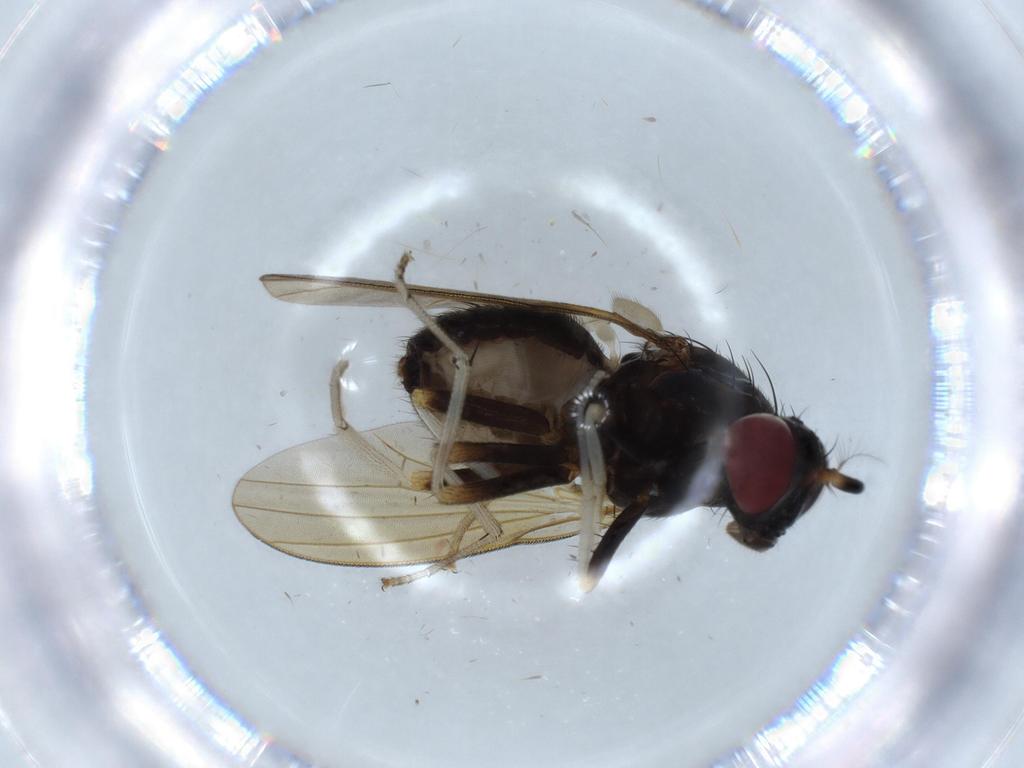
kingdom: Animalia
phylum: Arthropoda
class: Insecta
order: Diptera
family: Lauxaniidae
